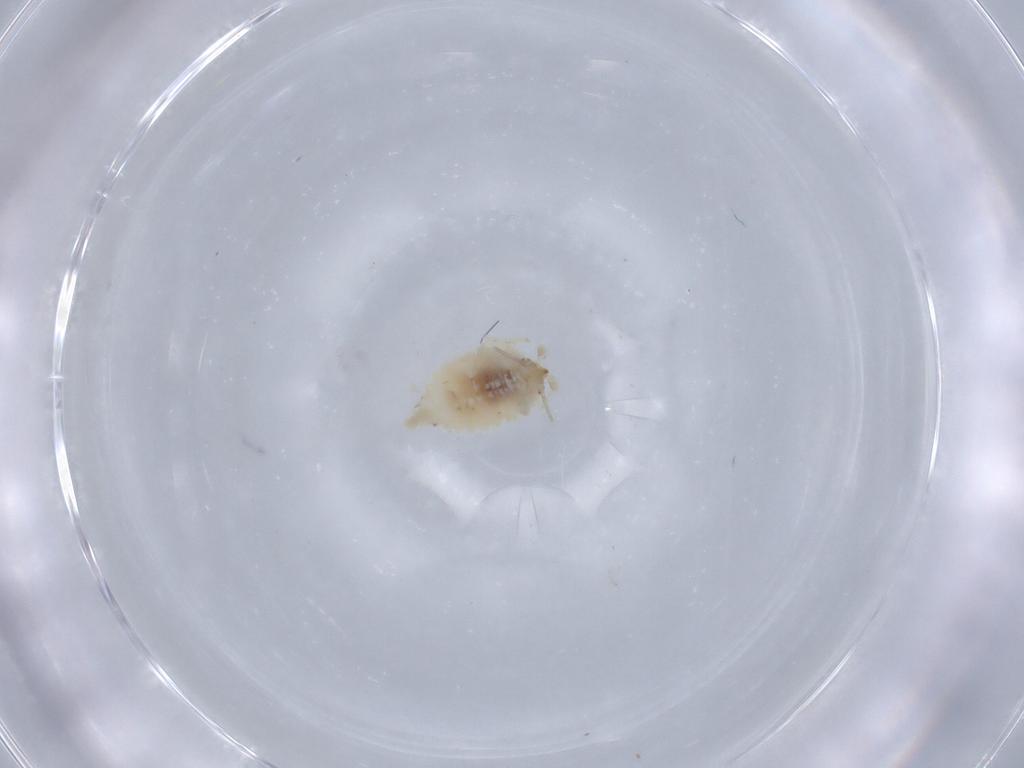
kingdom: Animalia
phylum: Arthropoda
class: Insecta
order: Neuroptera
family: Coniopterygidae
